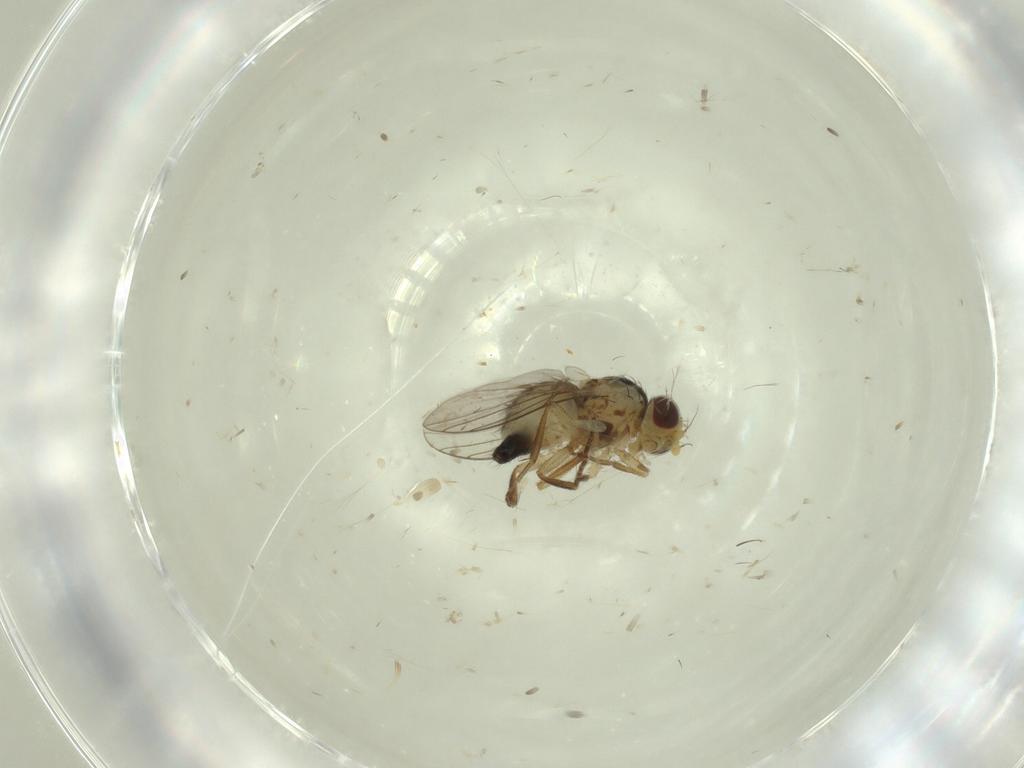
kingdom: Animalia
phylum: Arthropoda
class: Insecta
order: Diptera
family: Agromyzidae
